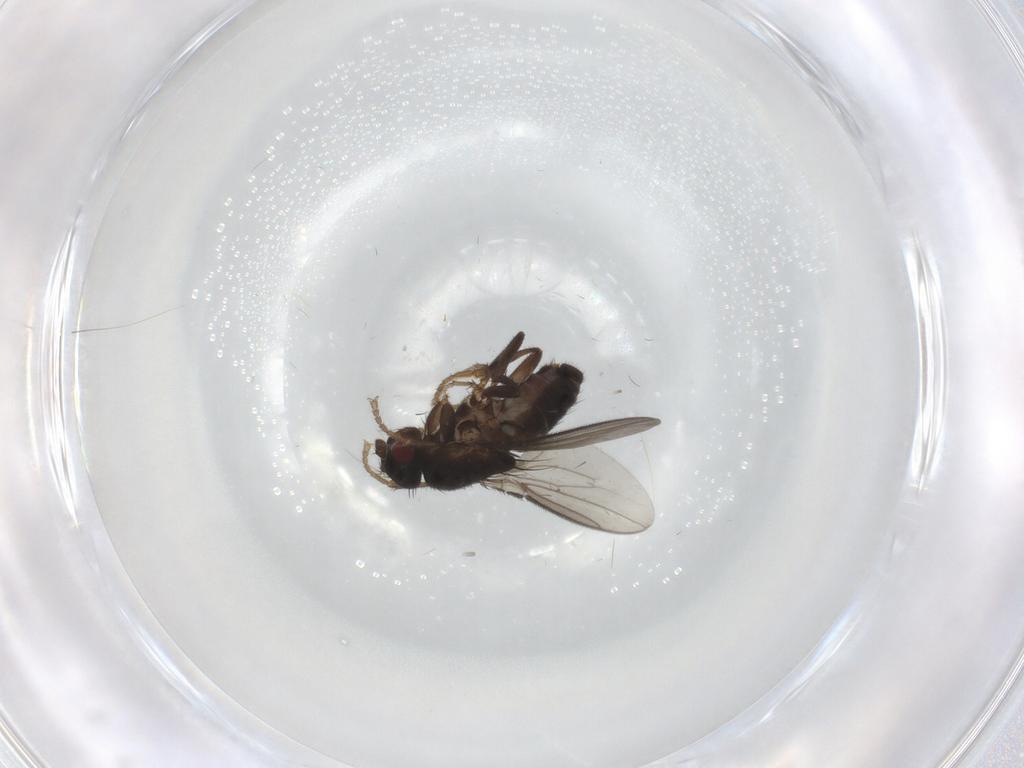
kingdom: Animalia
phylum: Arthropoda
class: Insecta
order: Diptera
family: Sphaeroceridae
